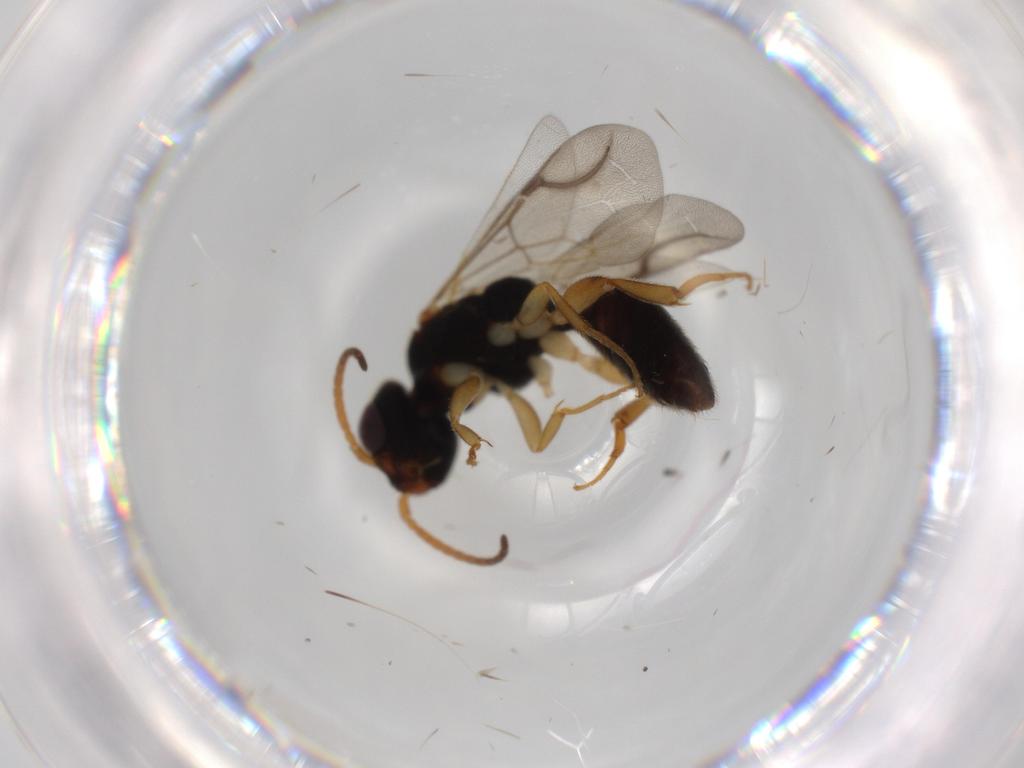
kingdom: Animalia
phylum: Arthropoda
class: Insecta
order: Hymenoptera
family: Bethylidae
